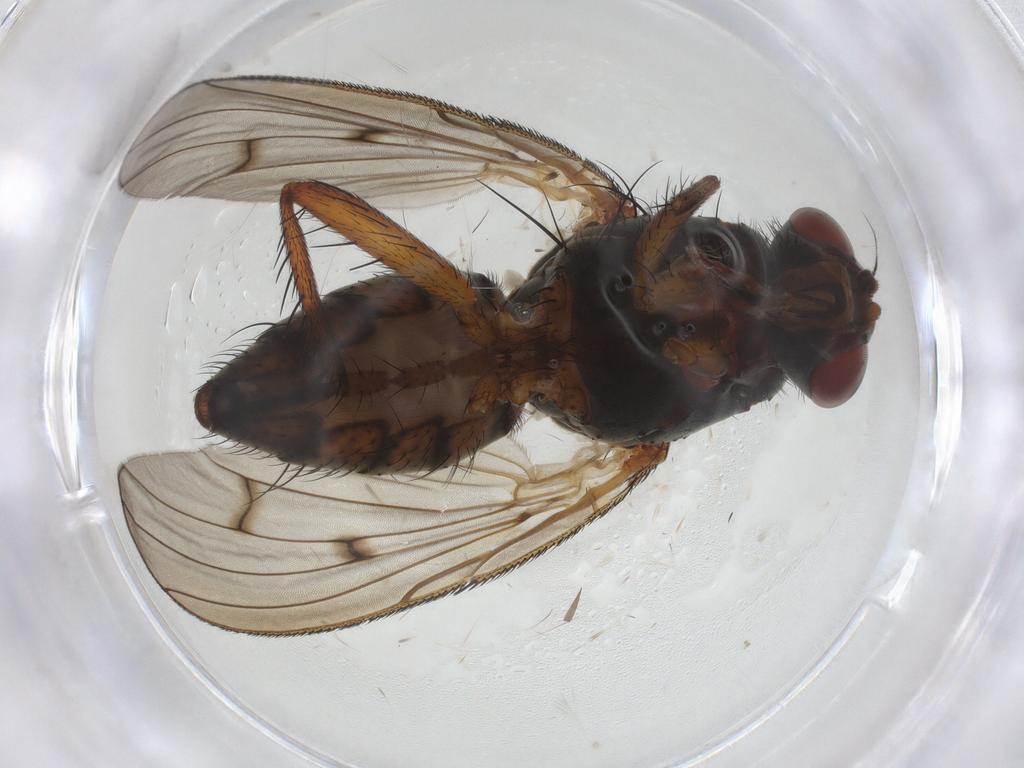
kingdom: Animalia
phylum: Arthropoda
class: Insecta
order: Diptera
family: Anthomyiidae
